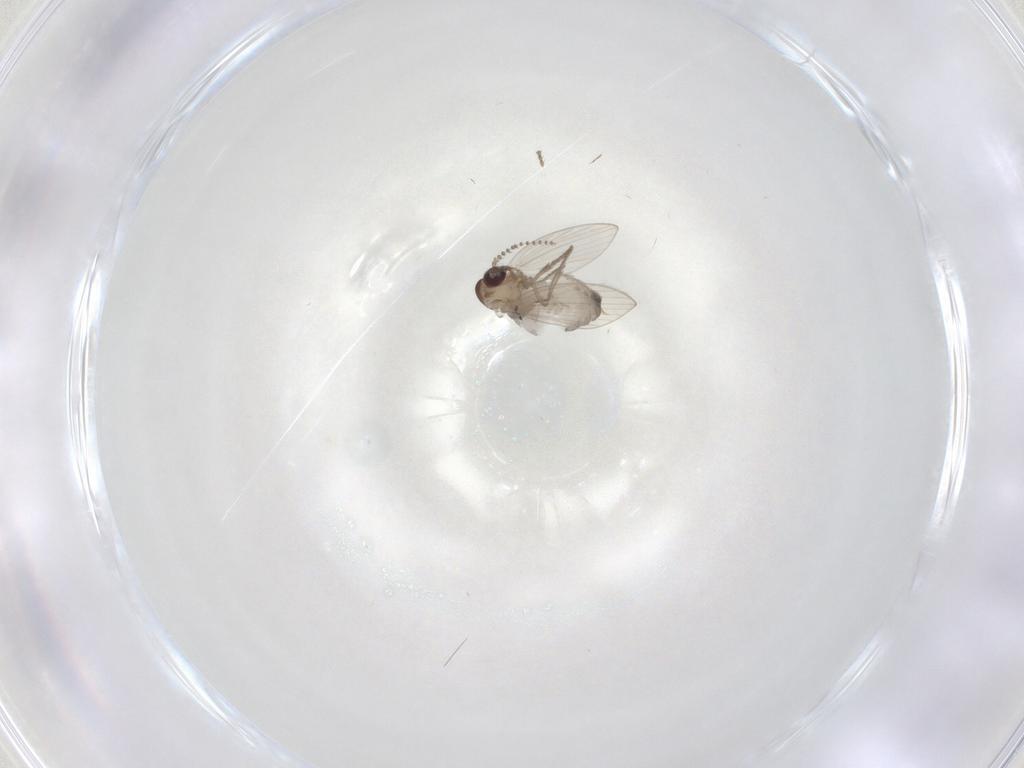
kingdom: Animalia
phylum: Arthropoda
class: Insecta
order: Diptera
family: Psychodidae
